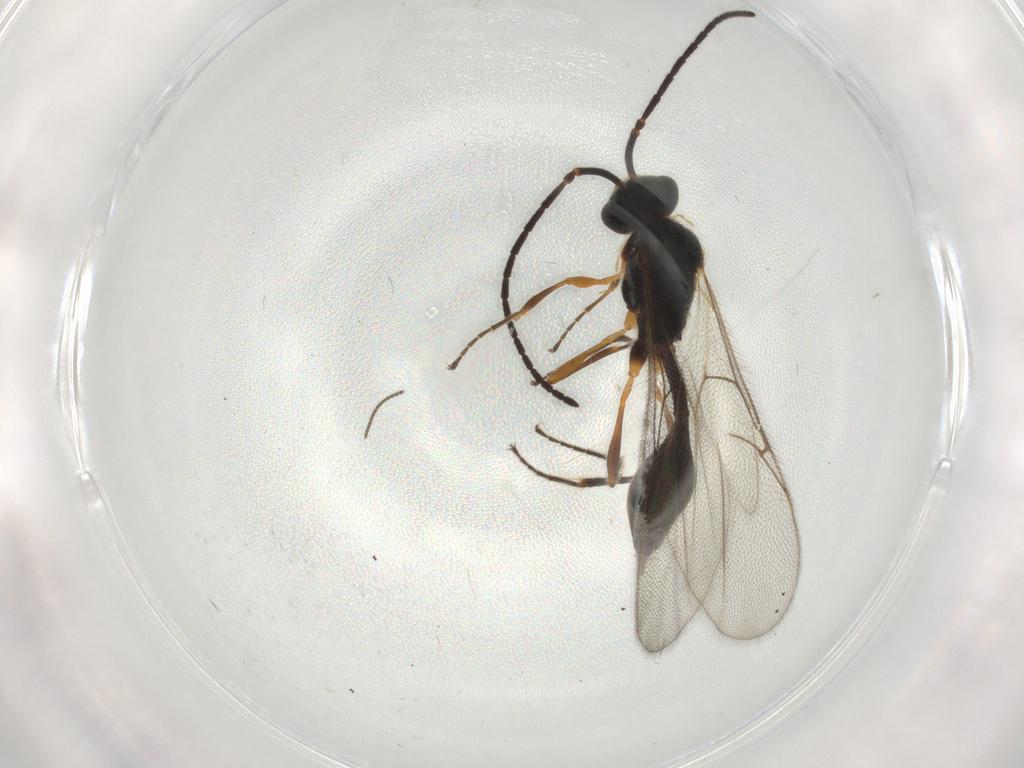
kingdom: Animalia
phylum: Arthropoda
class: Insecta
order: Hymenoptera
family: Diapriidae
